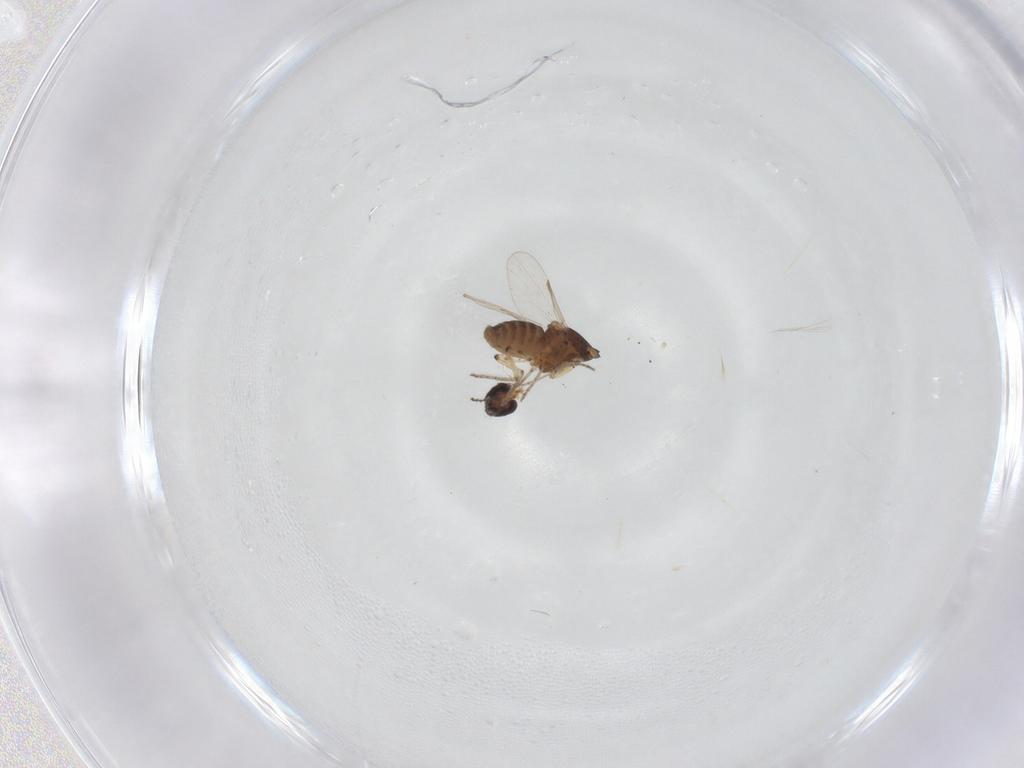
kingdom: Animalia
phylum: Arthropoda
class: Insecta
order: Diptera
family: Ceratopogonidae
